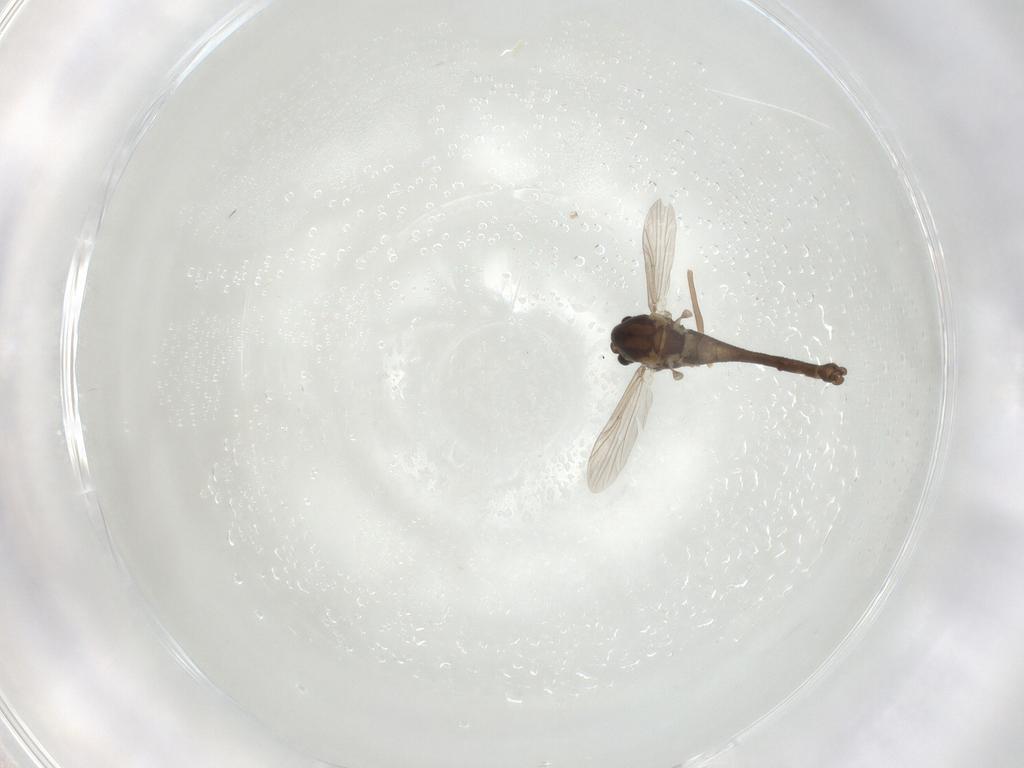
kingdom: Animalia
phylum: Arthropoda
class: Insecta
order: Diptera
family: Chironomidae
